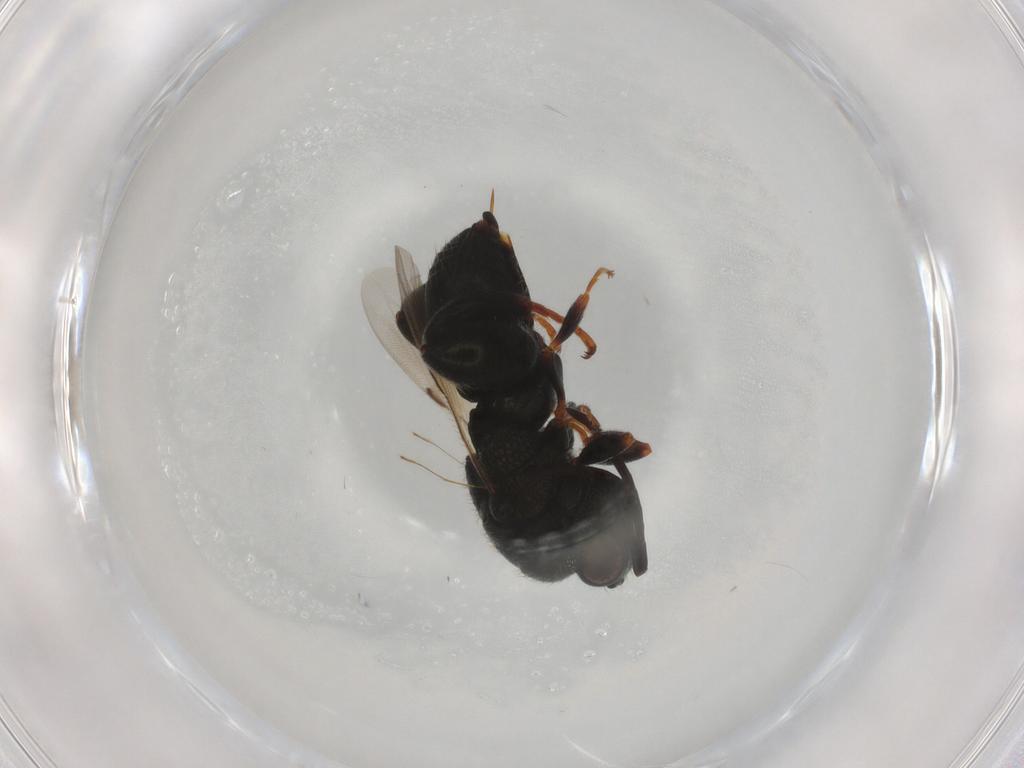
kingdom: Animalia
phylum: Arthropoda
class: Insecta
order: Hymenoptera
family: Chalcididae
